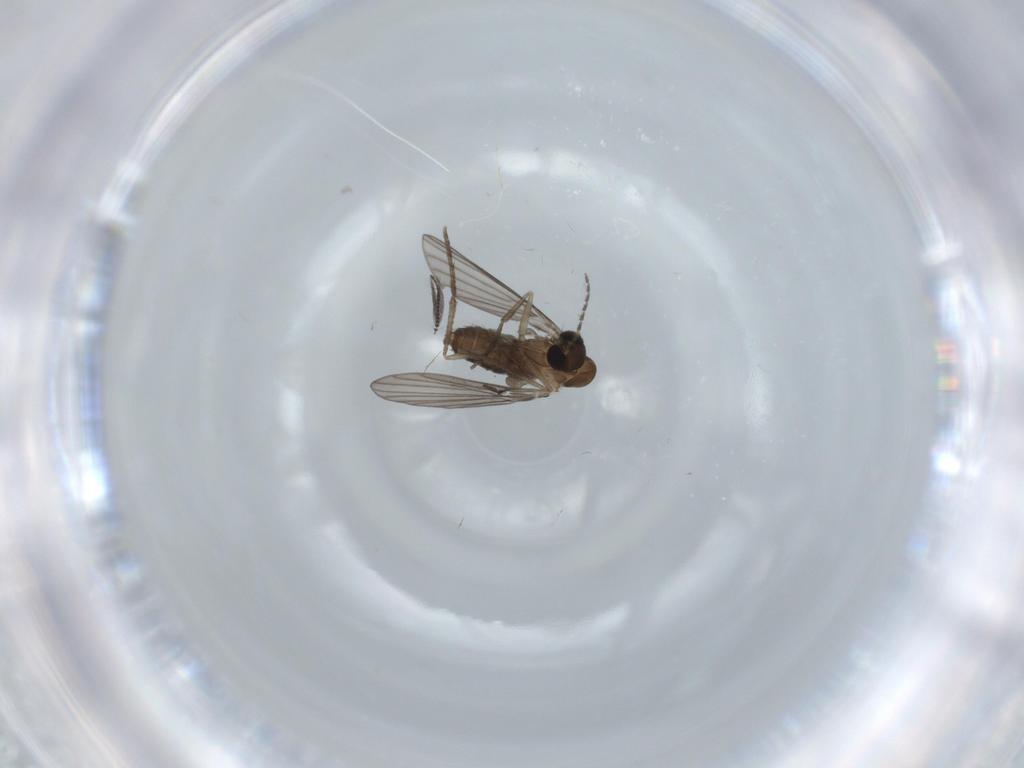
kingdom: Animalia
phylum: Arthropoda
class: Insecta
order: Diptera
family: Ceratopogonidae
